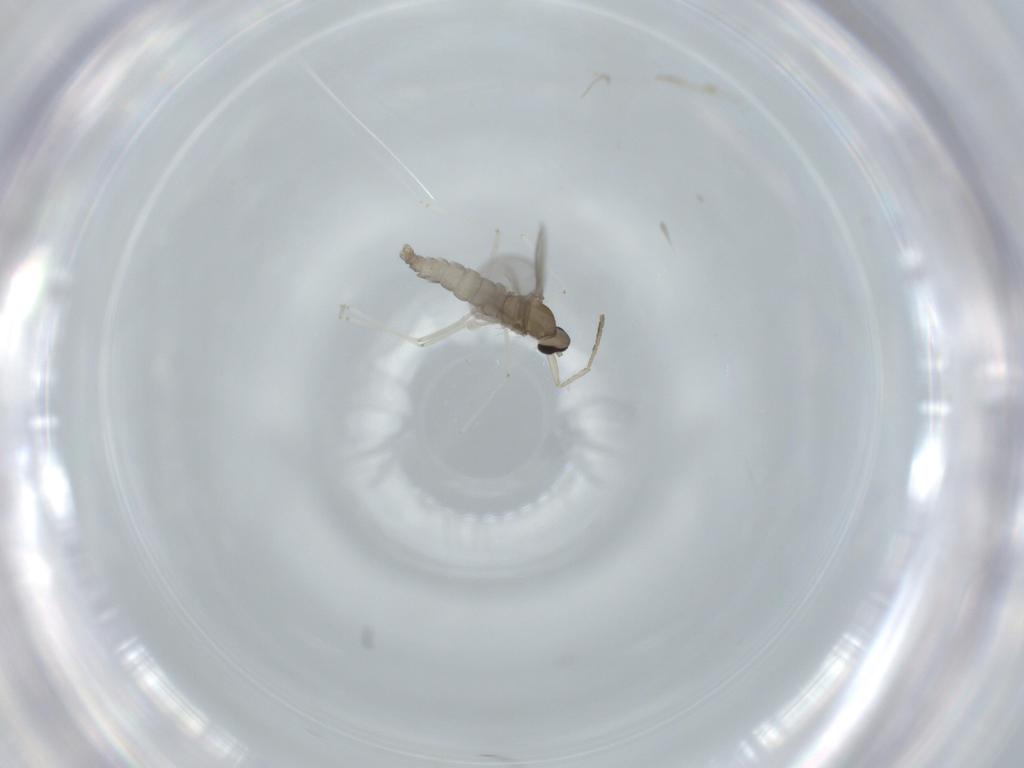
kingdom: Animalia
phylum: Arthropoda
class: Insecta
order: Diptera
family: Cecidomyiidae
